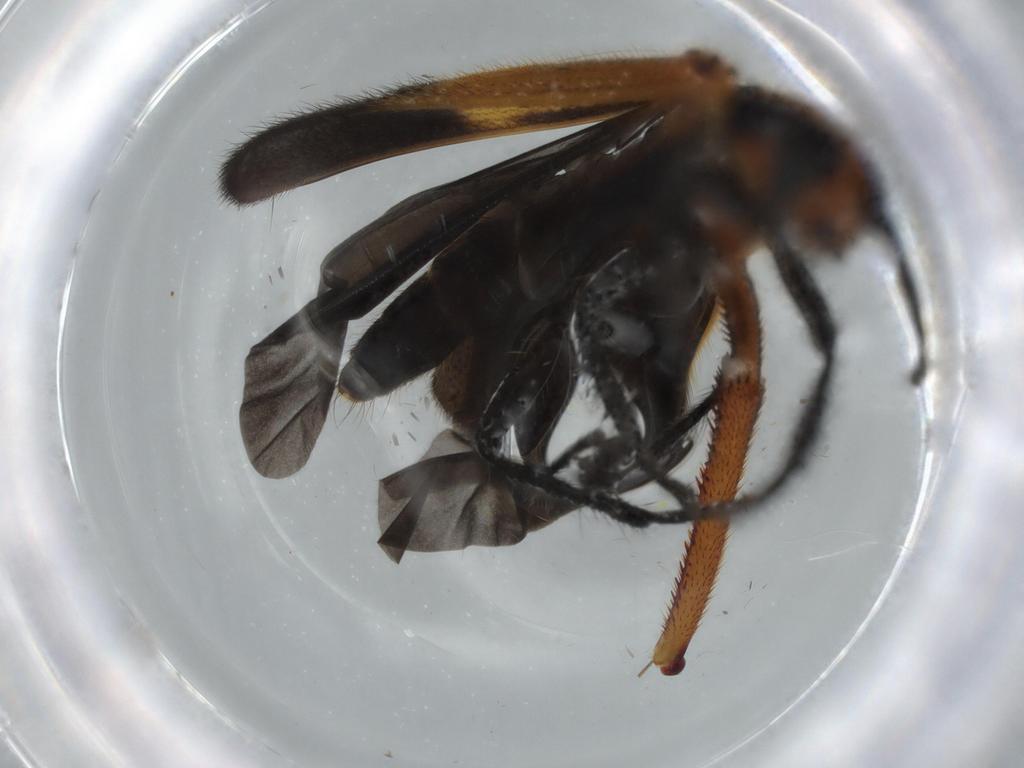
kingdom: Animalia
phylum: Arthropoda
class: Insecta
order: Coleoptera
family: Cleridae
